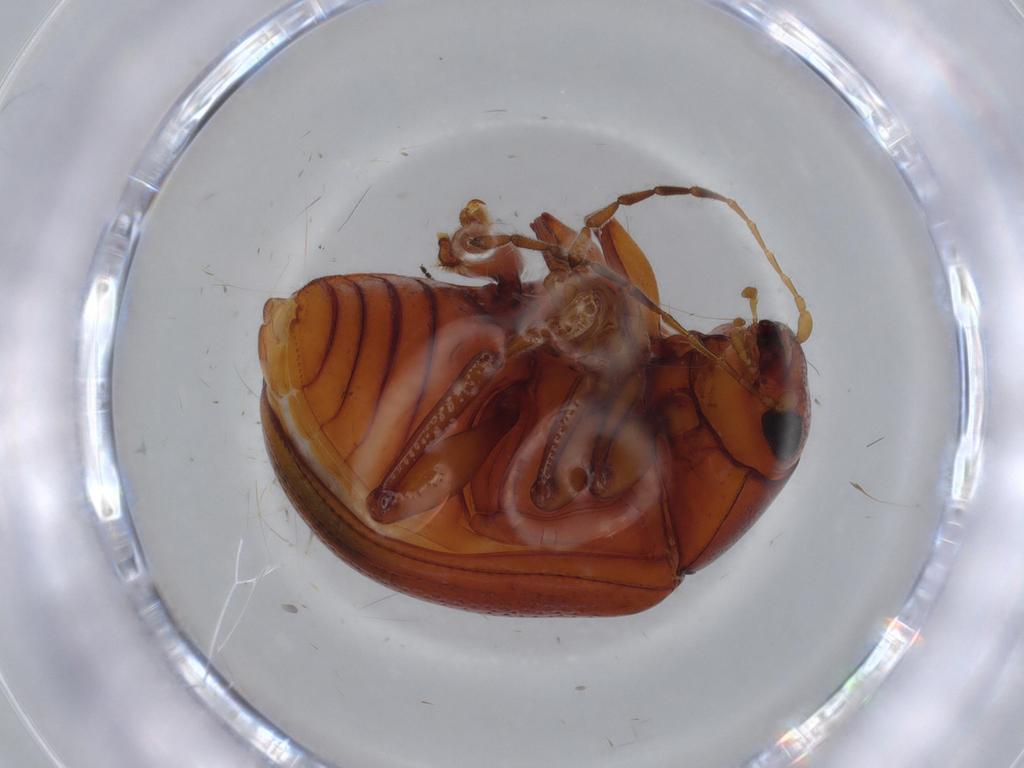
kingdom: Animalia
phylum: Arthropoda
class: Insecta
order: Coleoptera
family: Chrysomelidae
